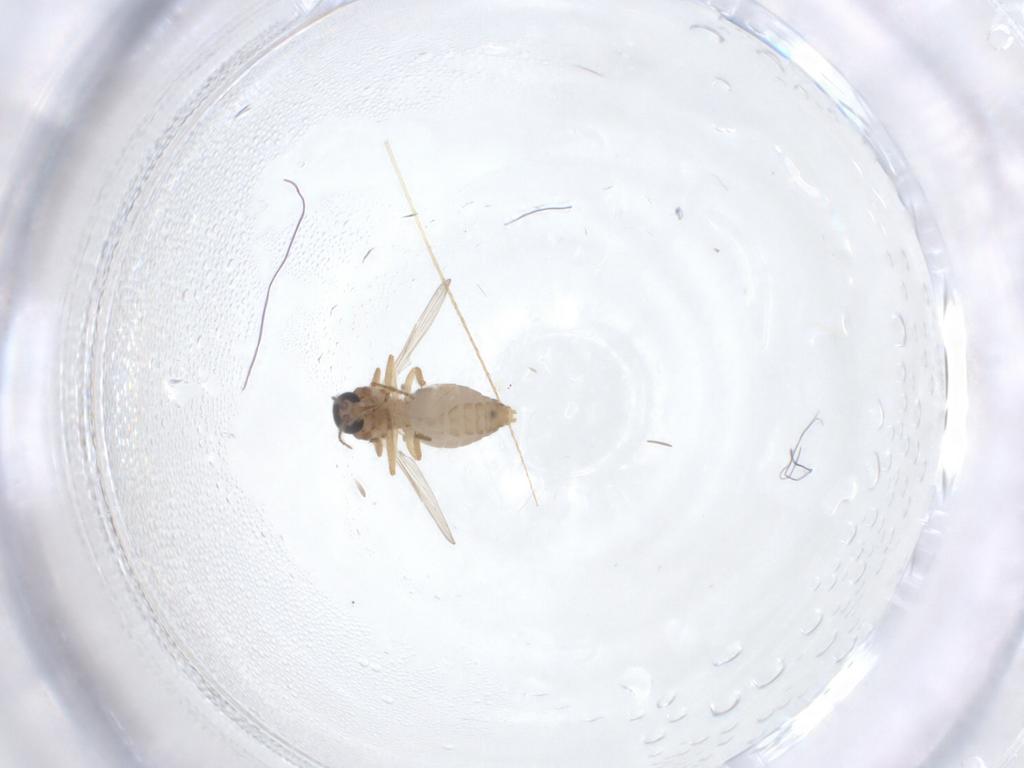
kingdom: Animalia
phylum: Arthropoda
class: Insecta
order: Diptera
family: Ceratopogonidae
